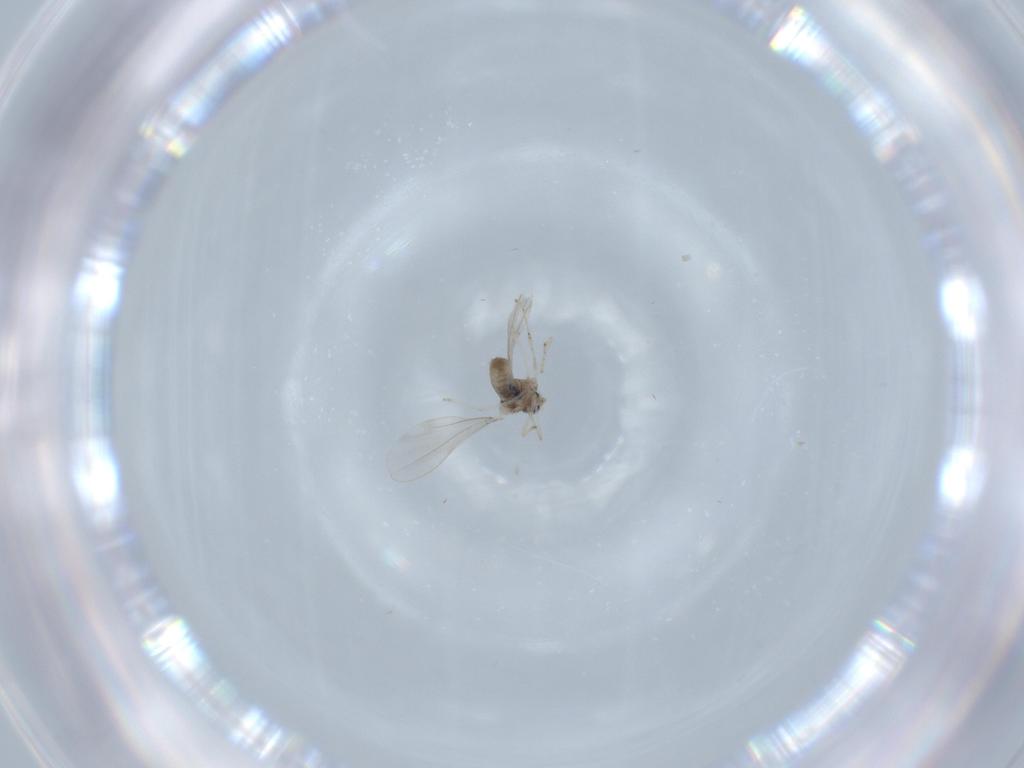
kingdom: Animalia
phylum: Arthropoda
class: Insecta
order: Diptera
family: Cecidomyiidae
